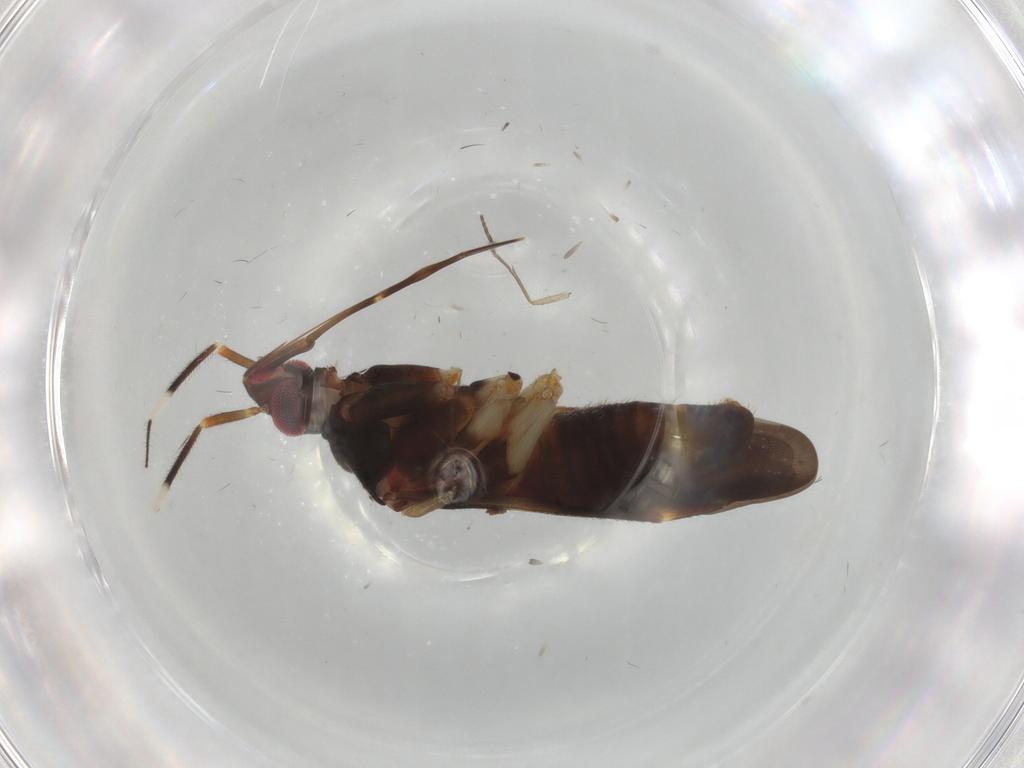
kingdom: Animalia
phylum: Arthropoda
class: Insecta
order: Hemiptera
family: Miridae
